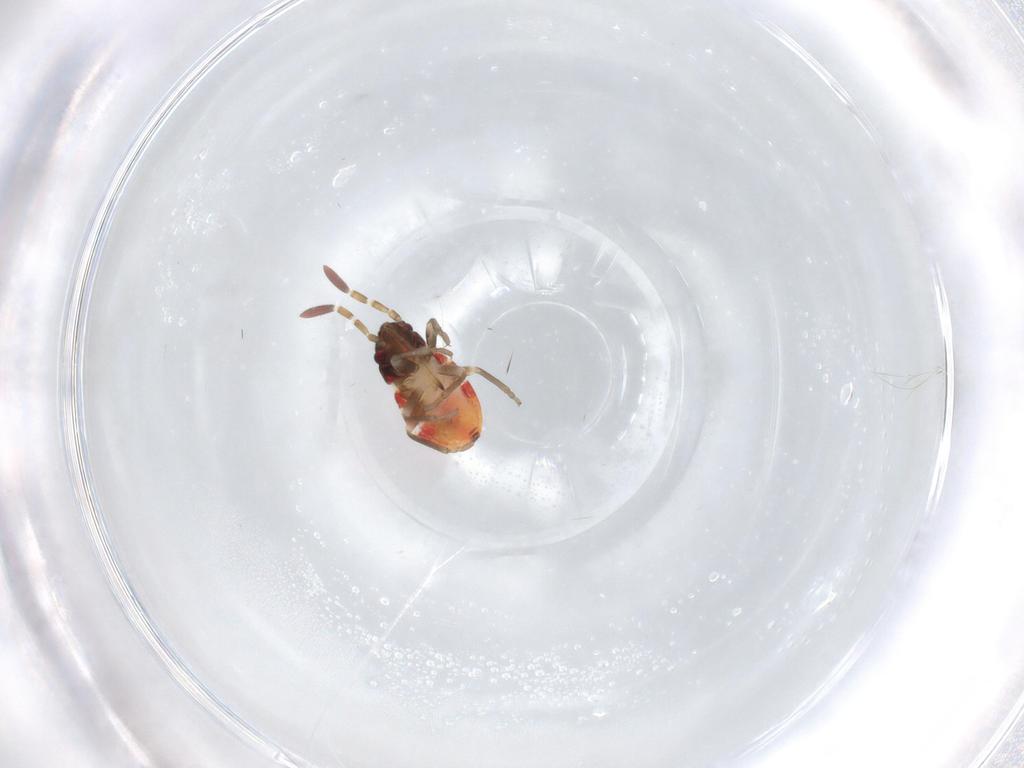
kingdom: Animalia
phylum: Arthropoda
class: Insecta
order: Hemiptera
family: Rhyparochromidae
